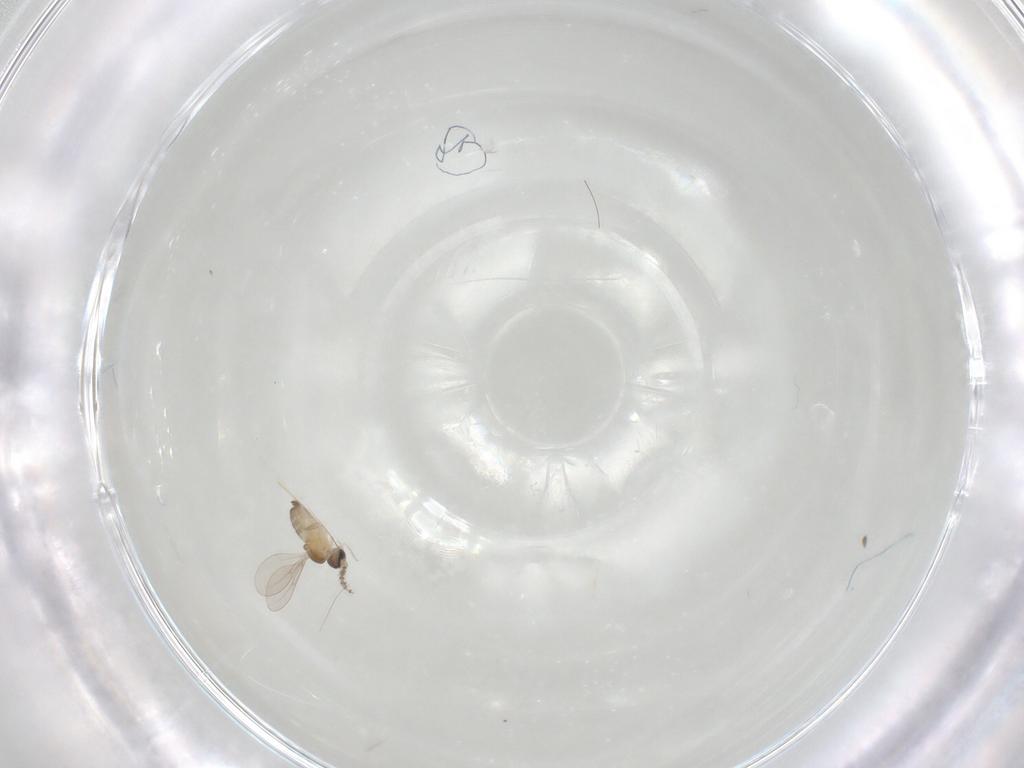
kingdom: Animalia
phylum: Arthropoda
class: Insecta
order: Diptera
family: Cecidomyiidae
